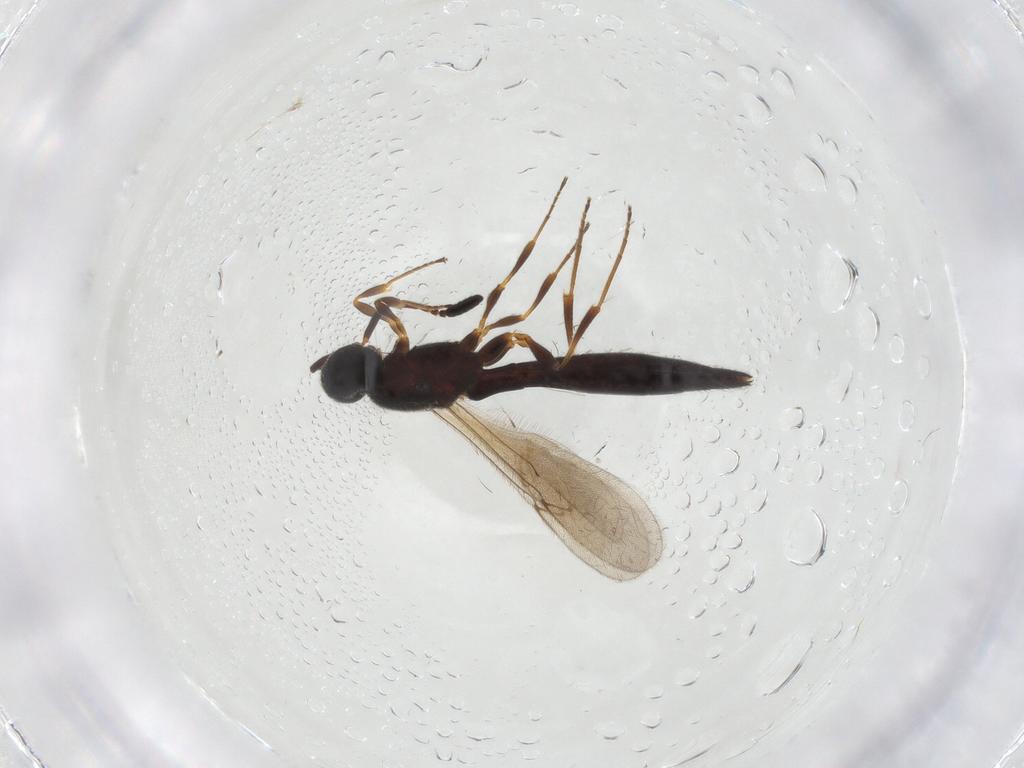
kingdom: Animalia
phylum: Arthropoda
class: Insecta
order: Hymenoptera
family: Scelionidae
